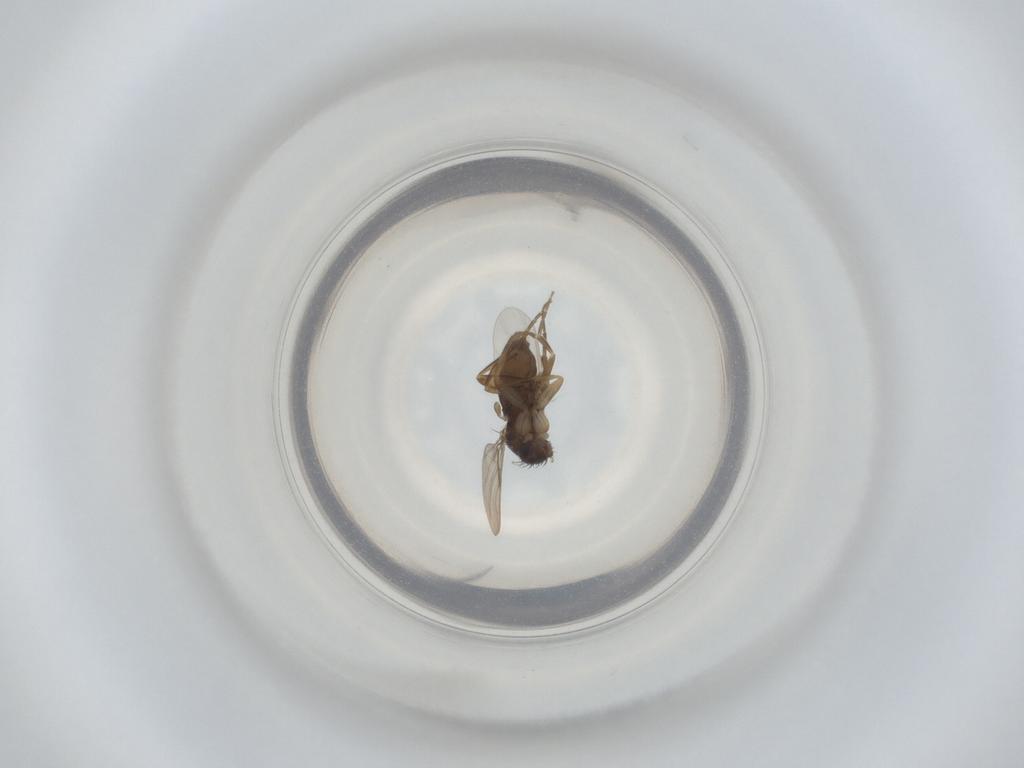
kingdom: Animalia
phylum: Arthropoda
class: Insecta
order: Diptera
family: Phoridae
